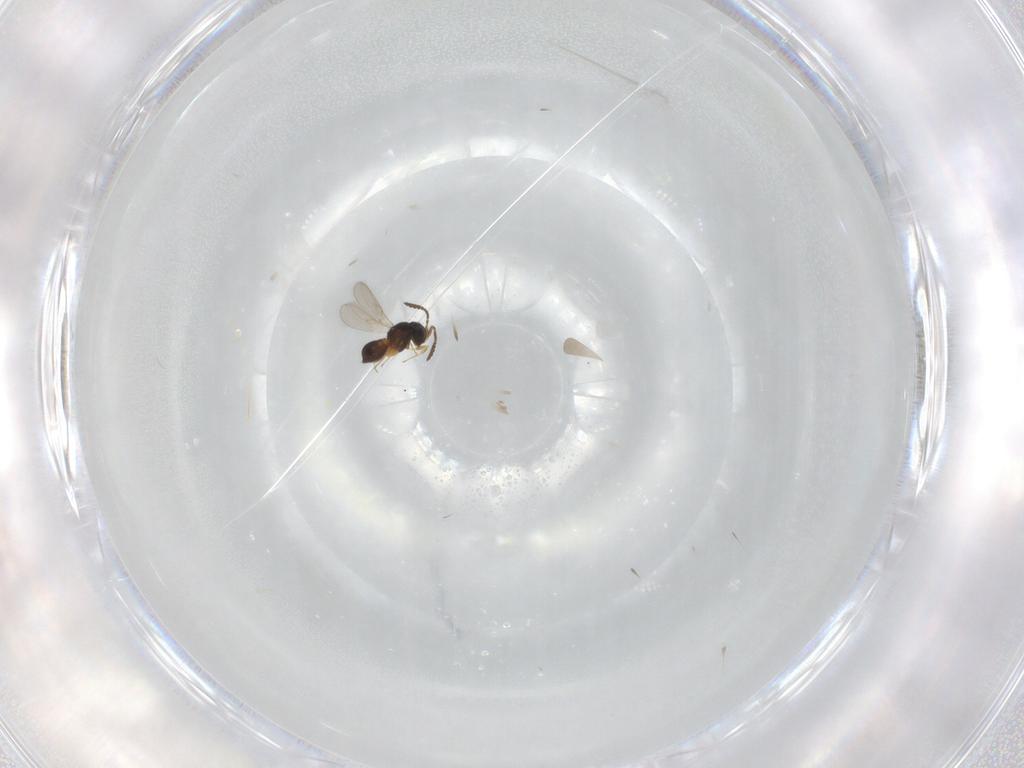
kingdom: Animalia
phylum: Arthropoda
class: Insecta
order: Hymenoptera
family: Scelionidae
